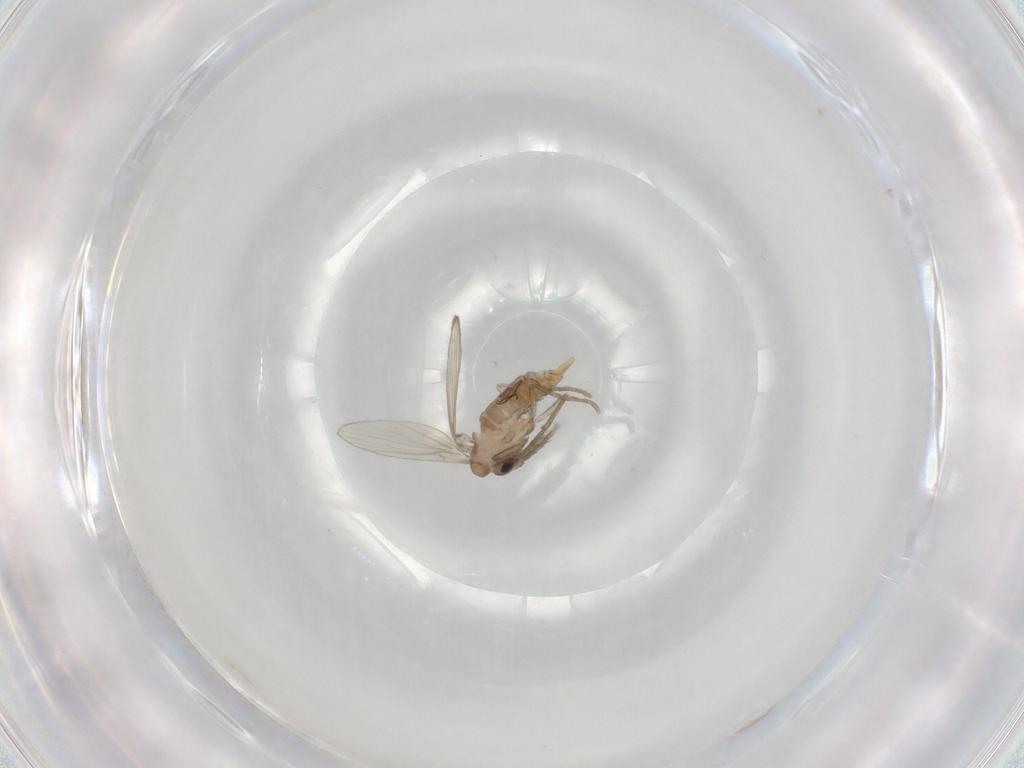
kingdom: Animalia
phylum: Arthropoda
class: Insecta
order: Diptera
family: Psychodidae
